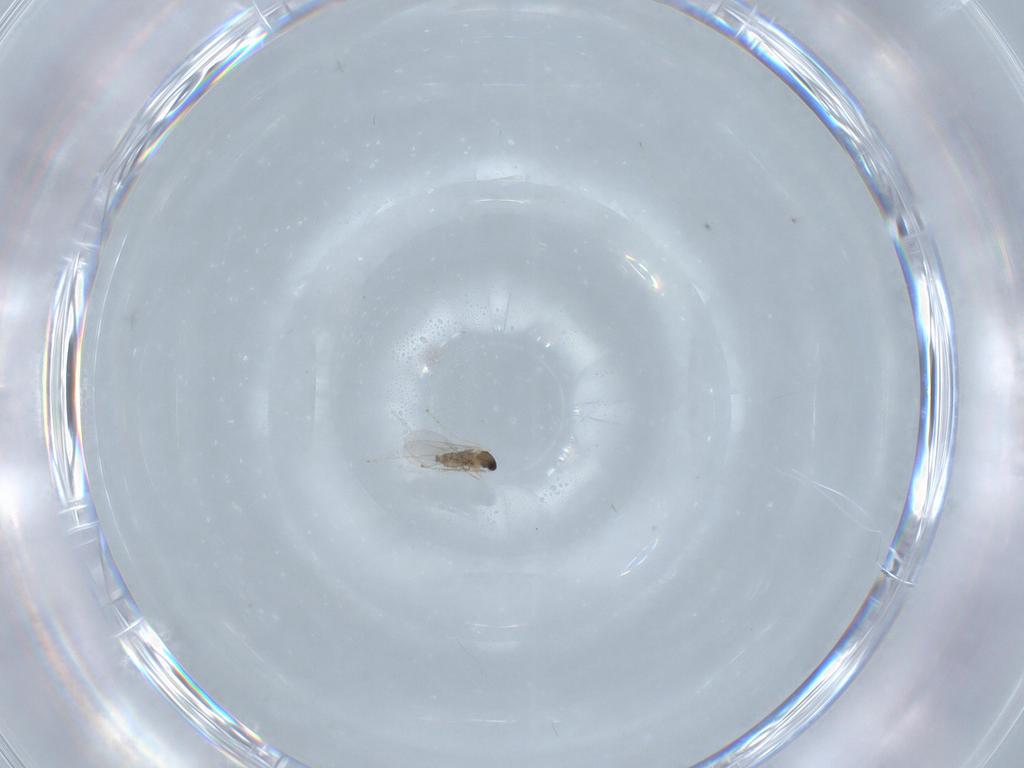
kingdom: Animalia
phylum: Arthropoda
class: Insecta
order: Diptera
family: Cecidomyiidae
